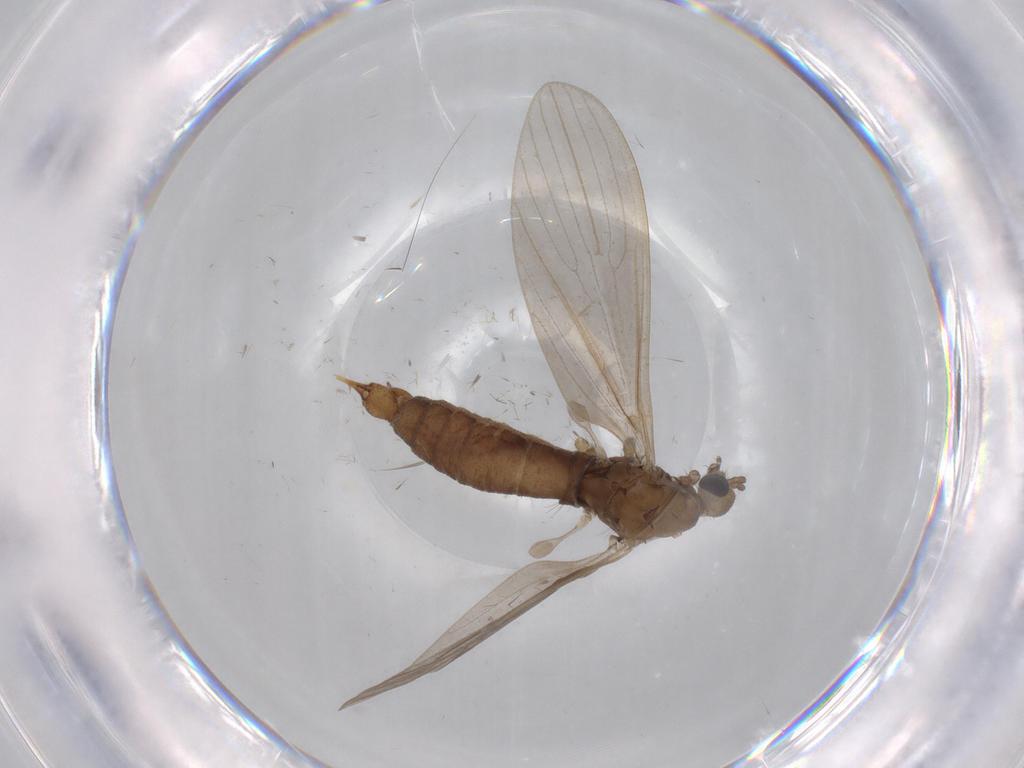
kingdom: Animalia
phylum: Arthropoda
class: Insecta
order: Diptera
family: Limoniidae
